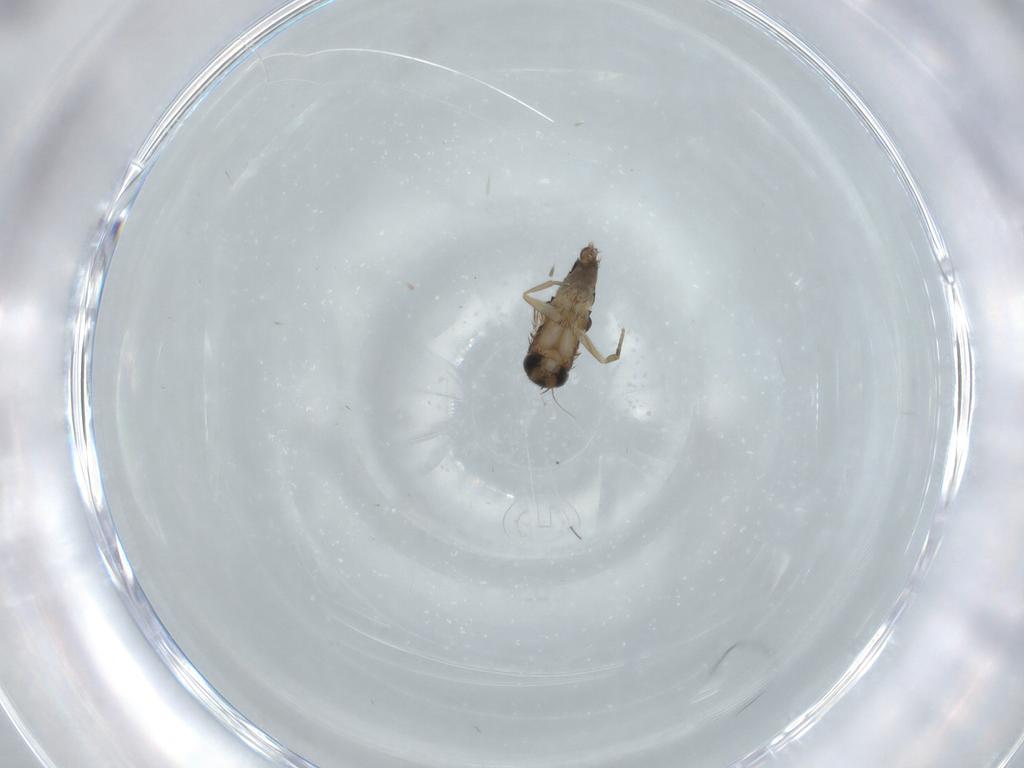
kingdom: Animalia
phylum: Arthropoda
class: Insecta
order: Diptera
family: Phoridae
